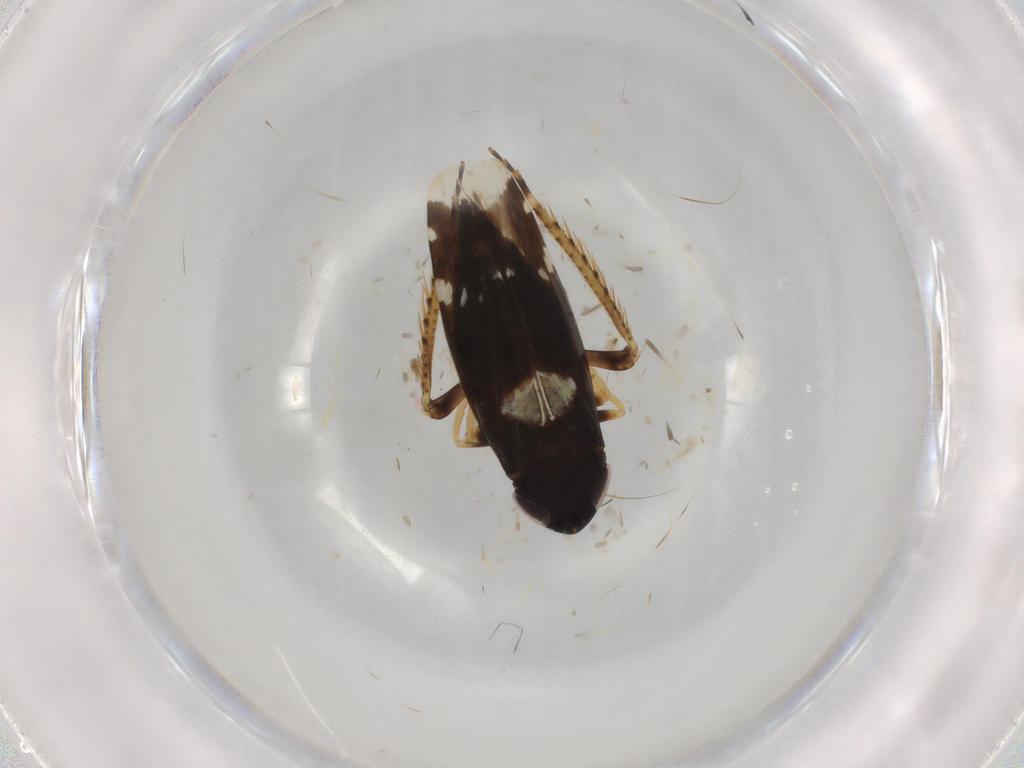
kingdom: Animalia
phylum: Arthropoda
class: Insecta
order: Hemiptera
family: Cicadellidae
